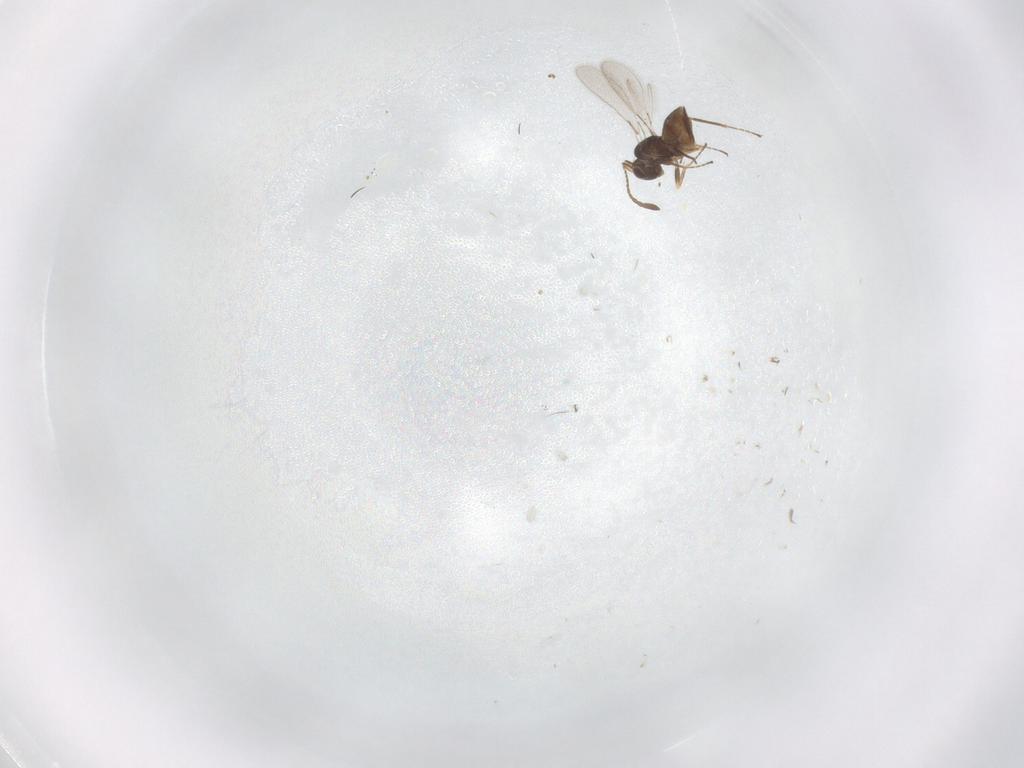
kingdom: Animalia
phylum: Arthropoda
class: Insecta
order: Hymenoptera
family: Mymaridae
